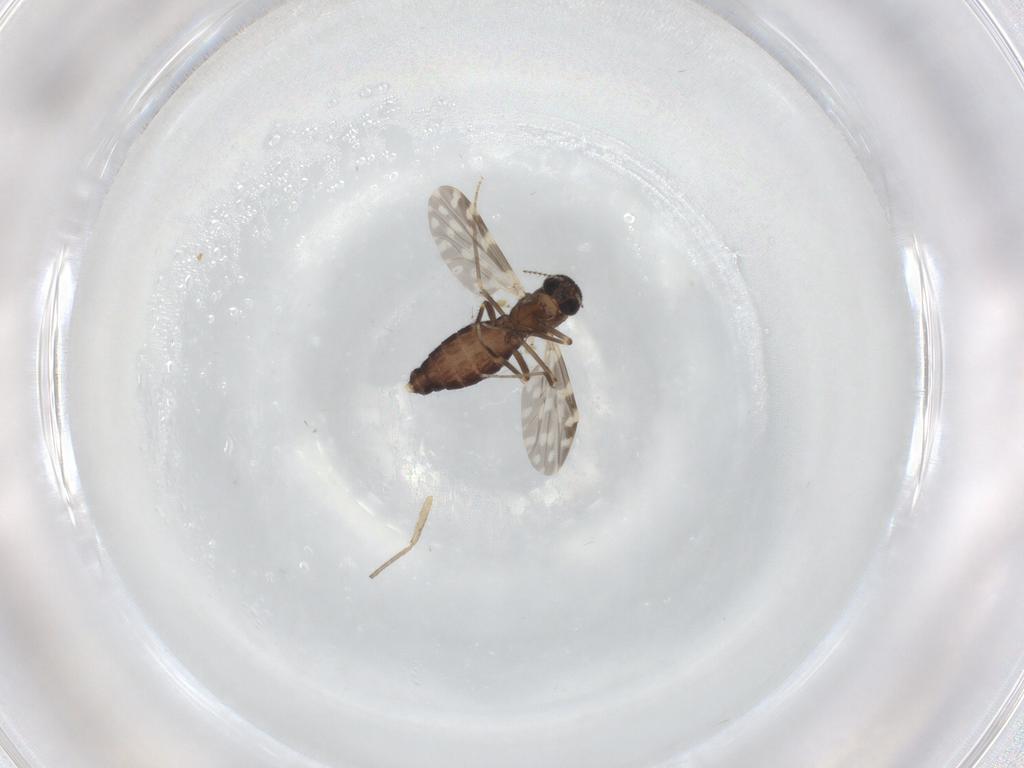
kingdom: Animalia
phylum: Arthropoda
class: Insecta
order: Diptera
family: Ceratopogonidae
